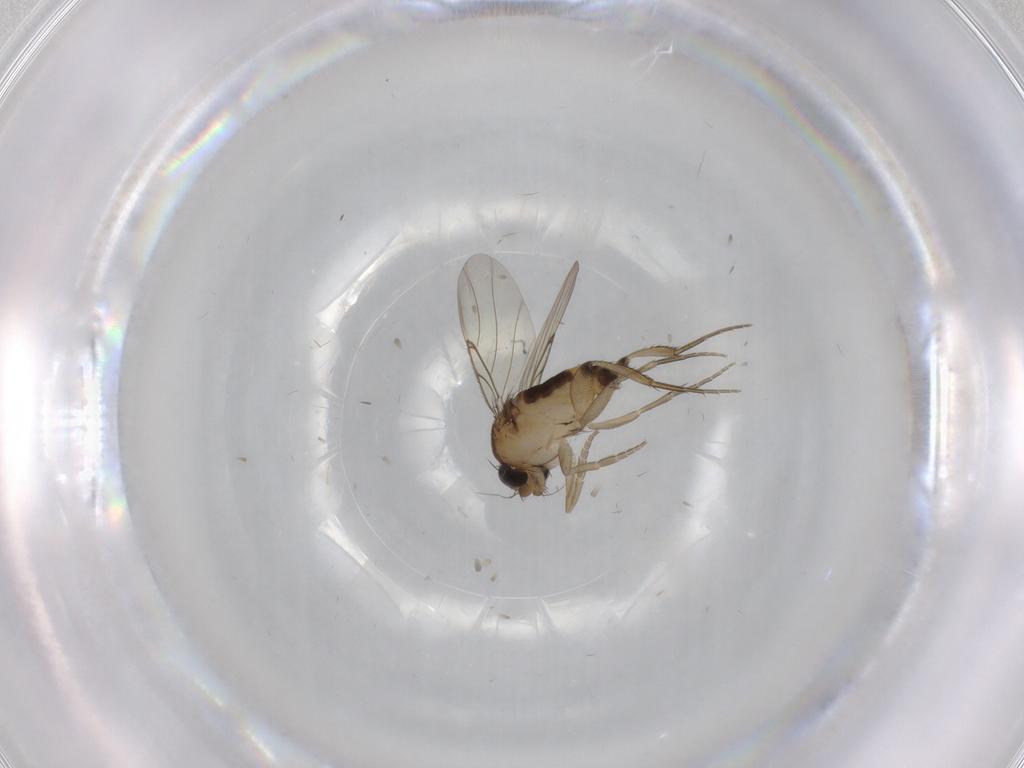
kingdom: Animalia
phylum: Arthropoda
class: Insecta
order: Diptera
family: Phoridae
